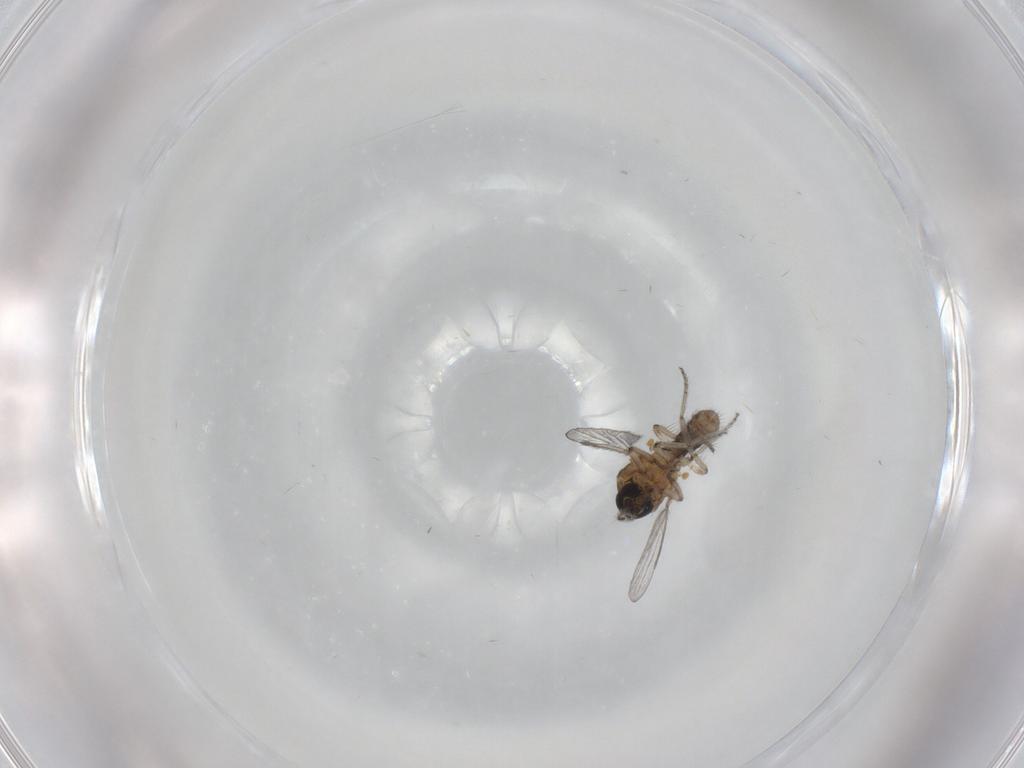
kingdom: Animalia
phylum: Arthropoda
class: Insecta
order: Diptera
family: Ceratopogonidae
